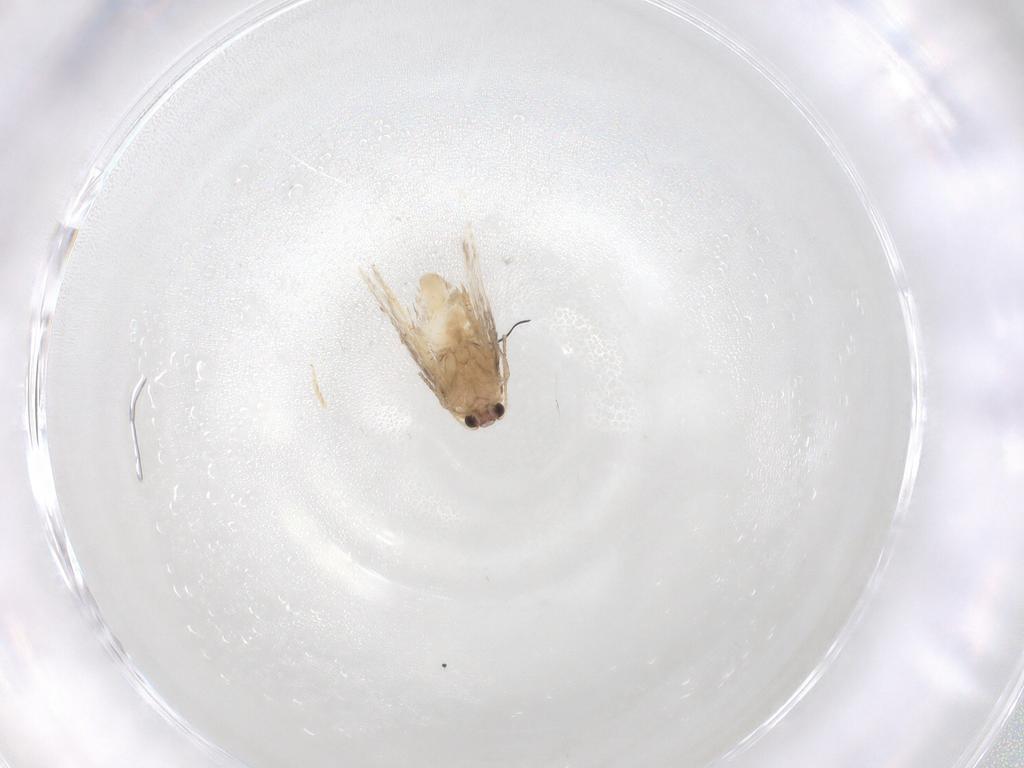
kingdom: Animalia
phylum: Arthropoda
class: Insecta
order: Lepidoptera
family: Nepticulidae
